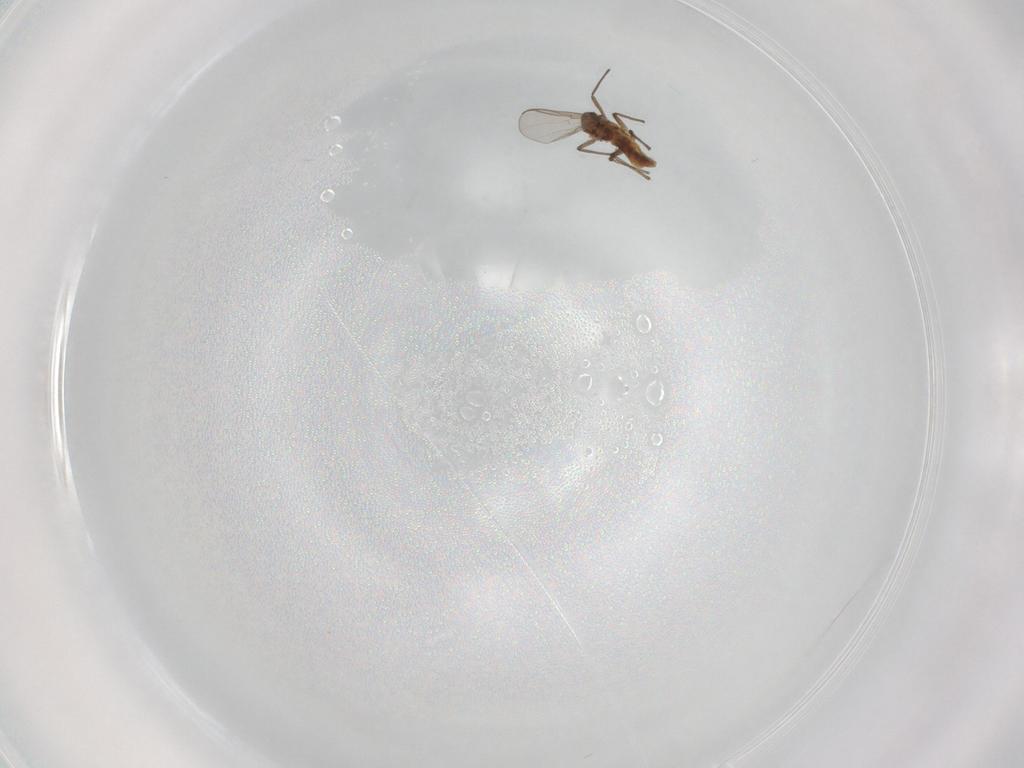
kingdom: Animalia
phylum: Arthropoda
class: Insecta
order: Diptera
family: Chironomidae
